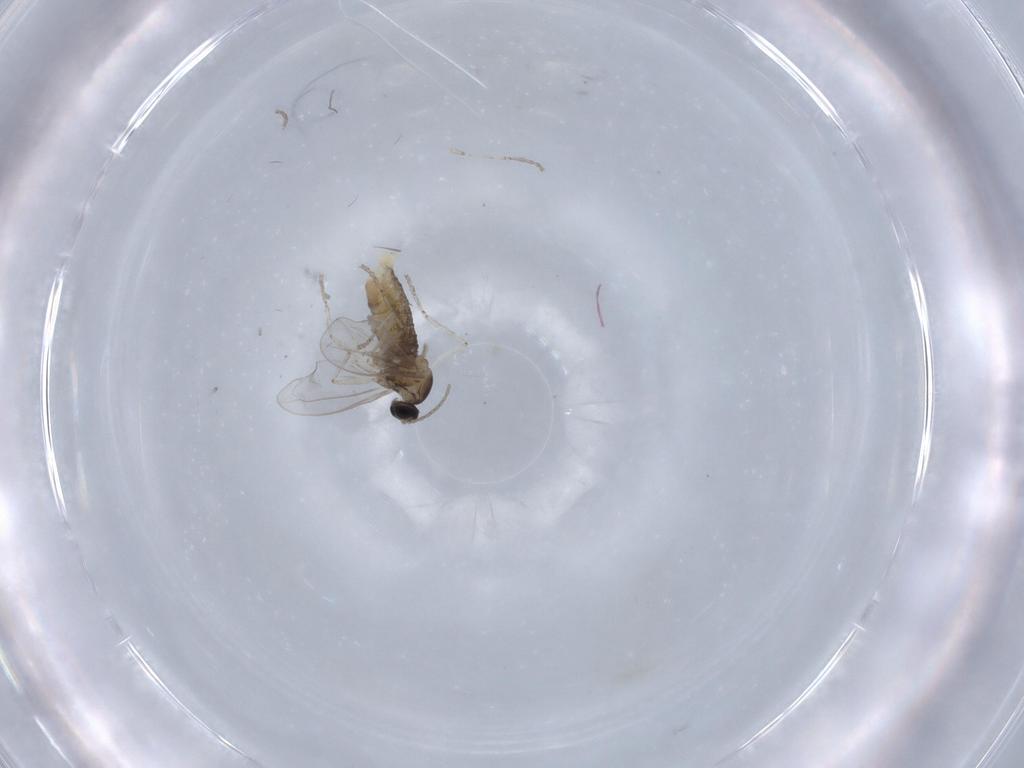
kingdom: Animalia
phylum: Arthropoda
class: Insecta
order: Diptera
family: Cecidomyiidae
